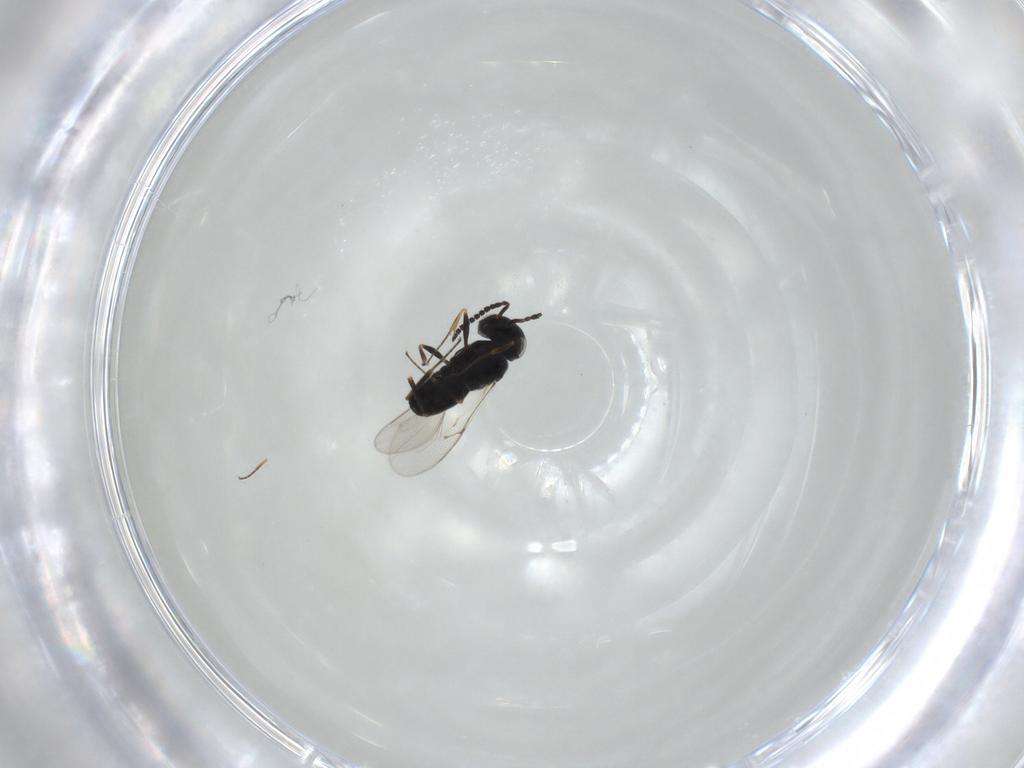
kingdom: Animalia
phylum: Arthropoda
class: Insecta
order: Hymenoptera
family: Scelionidae
